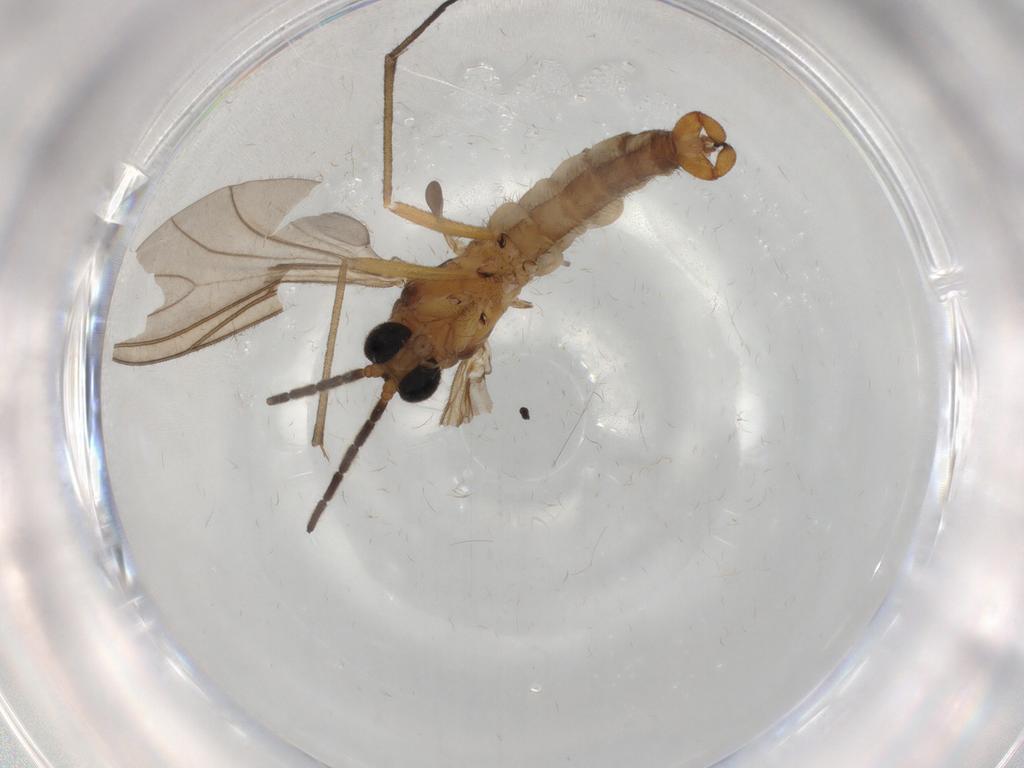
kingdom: Animalia
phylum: Arthropoda
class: Insecta
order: Diptera
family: Sciaridae
